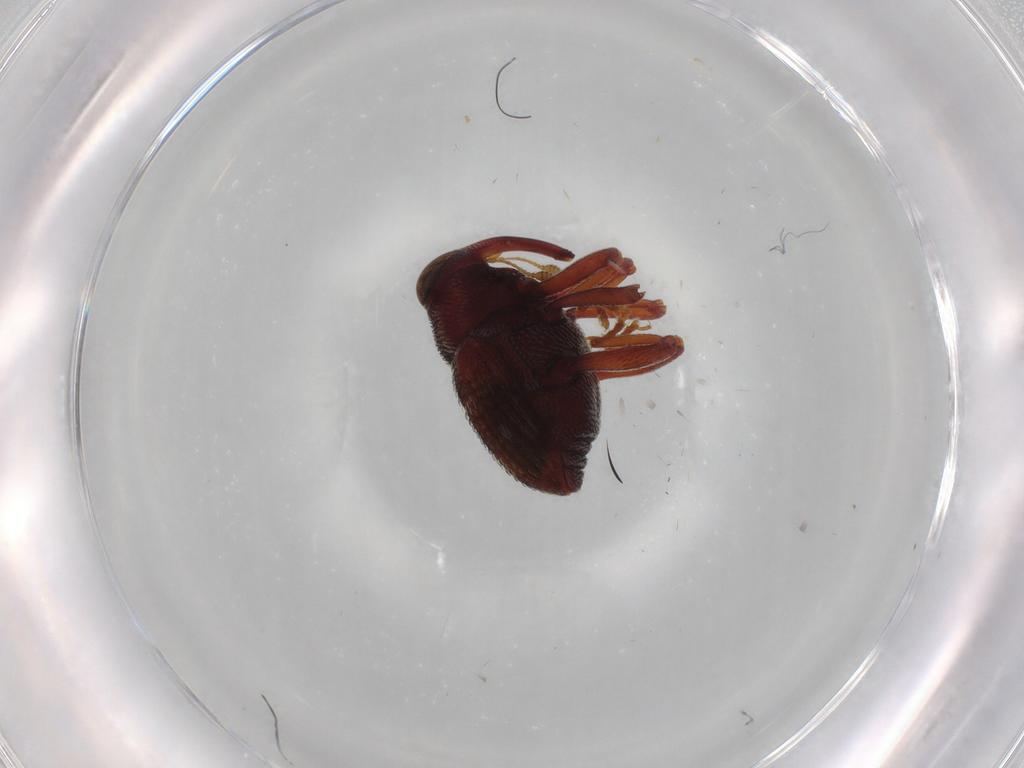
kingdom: Animalia
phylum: Arthropoda
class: Insecta
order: Coleoptera
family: Curculionidae
